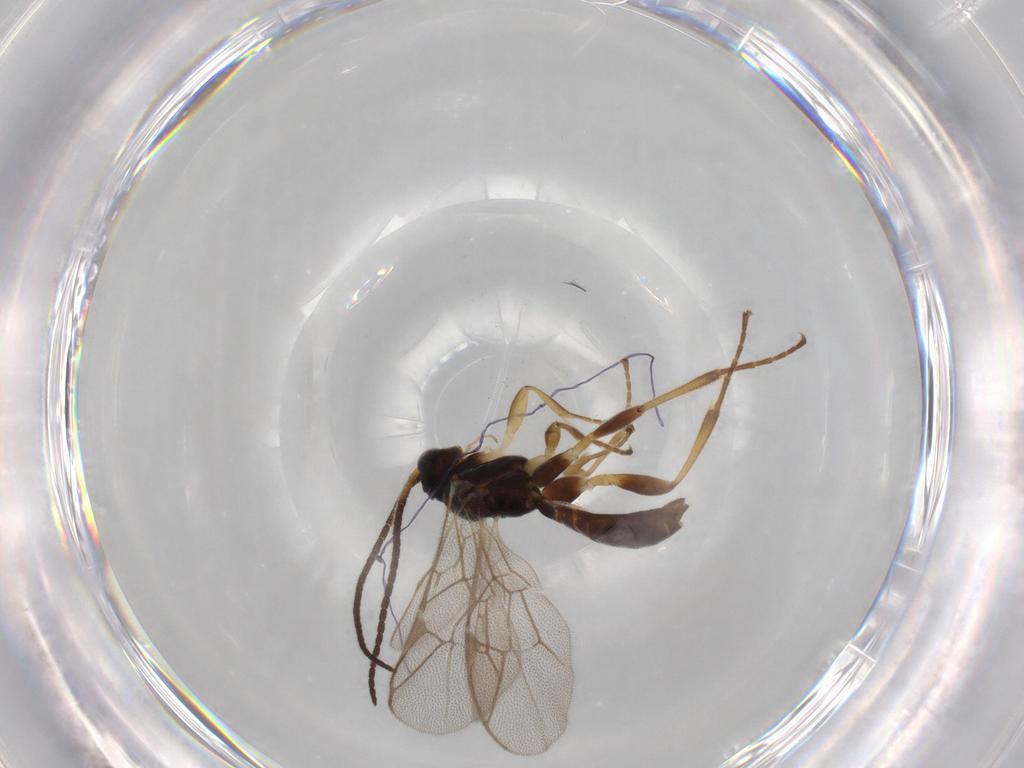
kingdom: Animalia
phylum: Arthropoda
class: Insecta
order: Hymenoptera
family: Ichneumonidae
